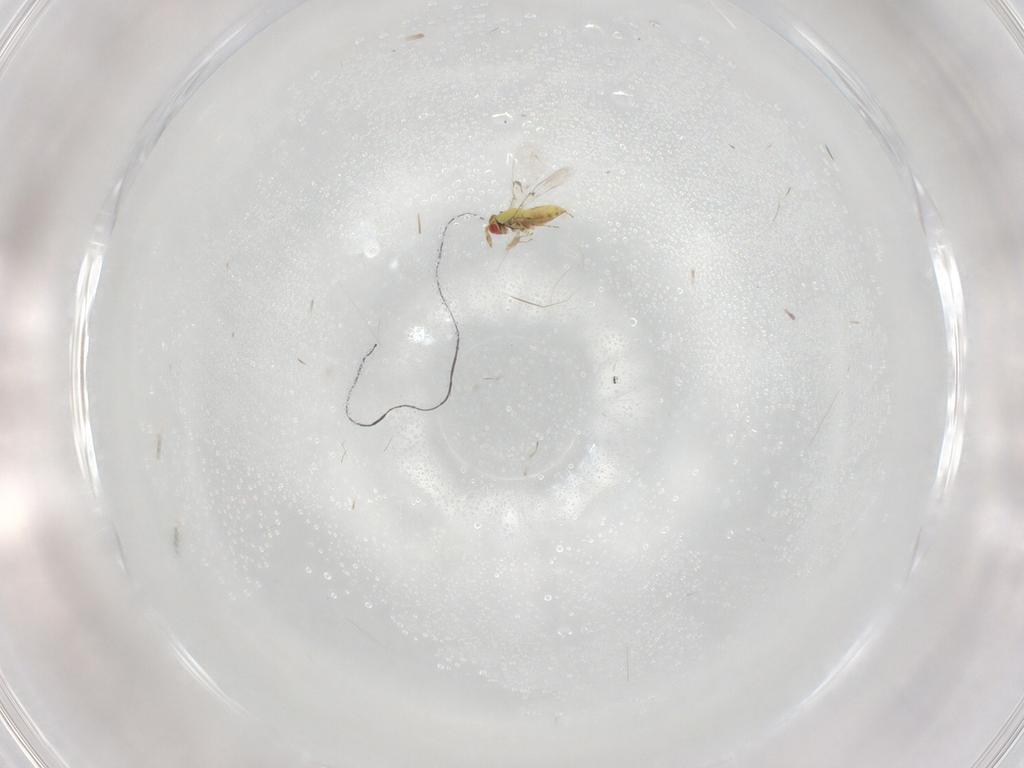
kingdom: Animalia
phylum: Arthropoda
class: Insecta
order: Hymenoptera
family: Trichogrammatidae
